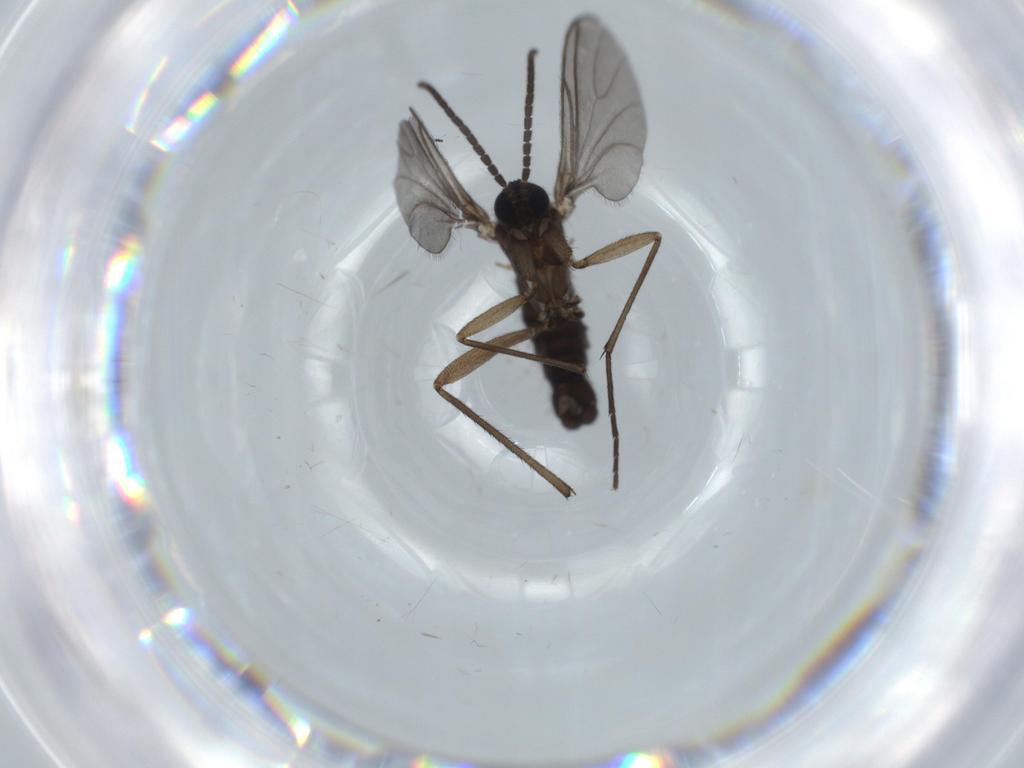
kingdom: Animalia
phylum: Arthropoda
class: Insecta
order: Diptera
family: Sciaridae
